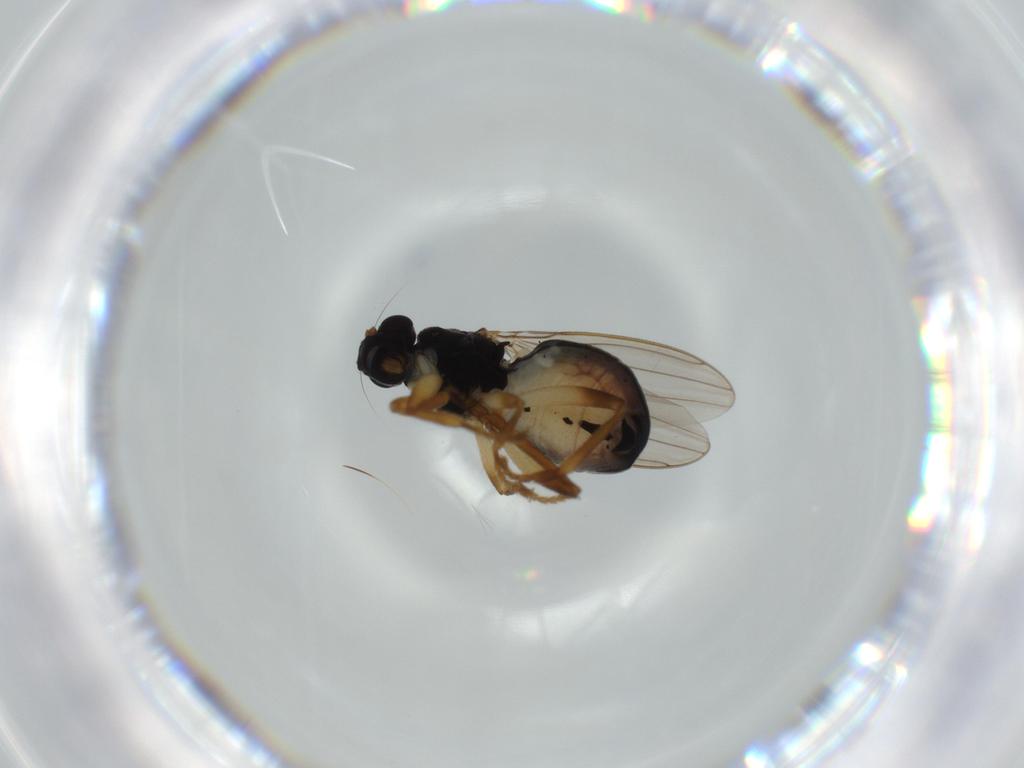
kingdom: Animalia
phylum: Arthropoda
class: Insecta
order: Diptera
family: Sphaeroceridae
